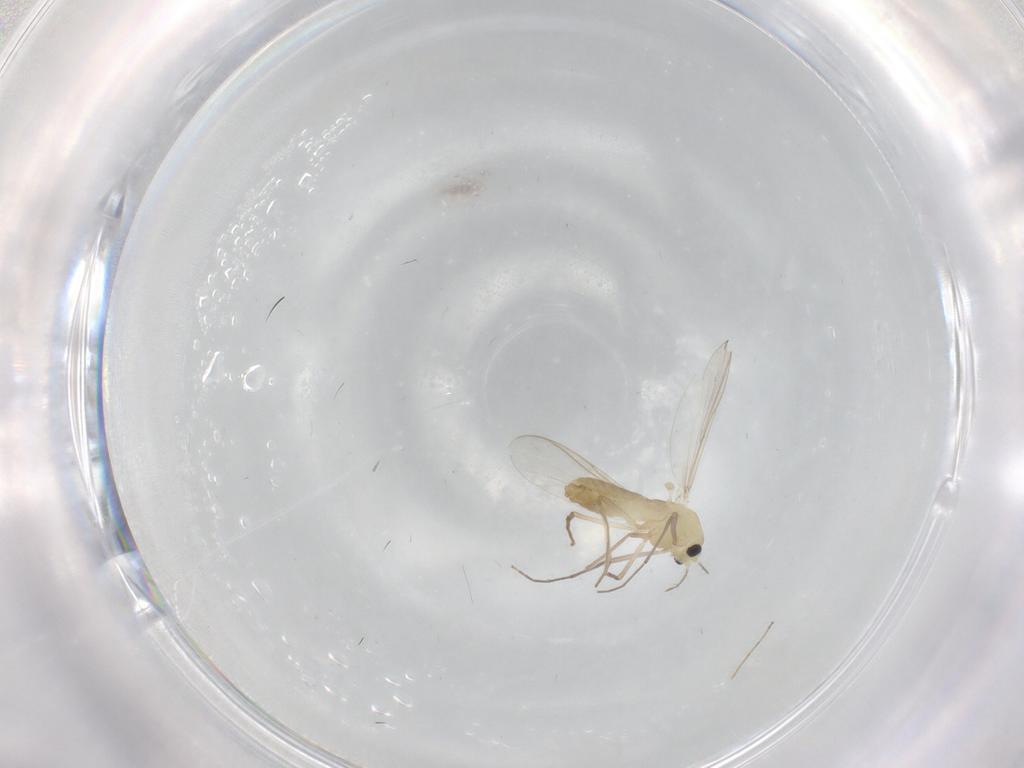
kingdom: Animalia
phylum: Arthropoda
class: Insecta
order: Diptera
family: Chironomidae
